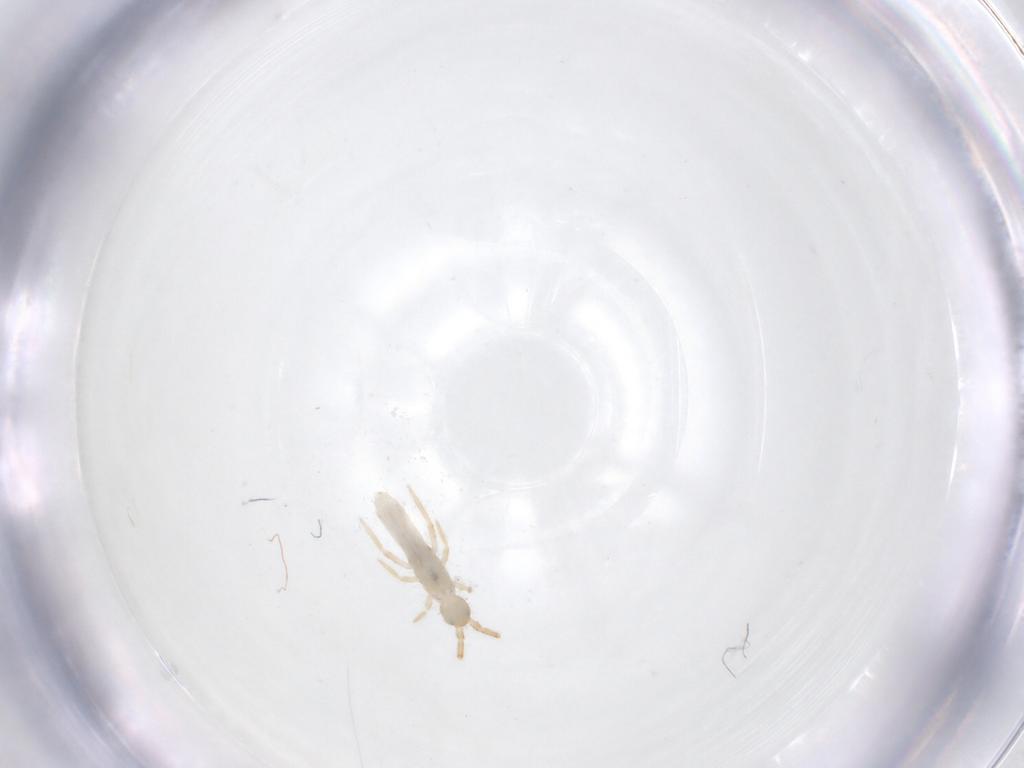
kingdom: Animalia
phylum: Arthropoda
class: Collembola
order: Entomobryomorpha
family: Entomobryidae
